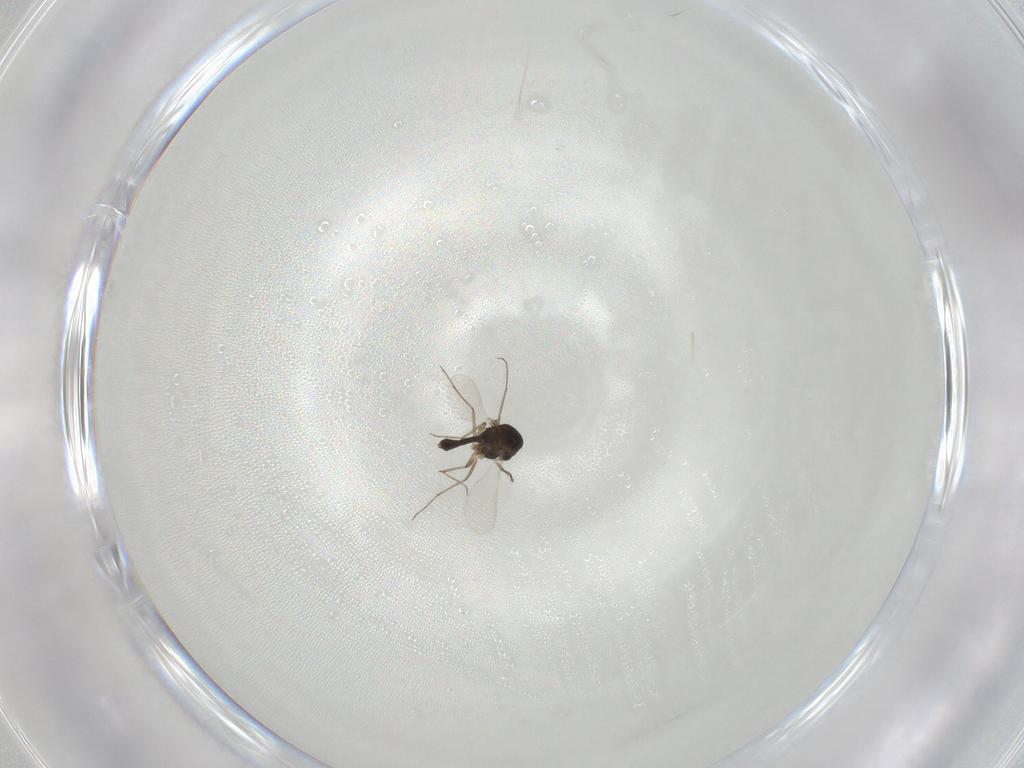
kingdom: Animalia
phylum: Arthropoda
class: Insecta
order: Diptera
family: Chironomidae
